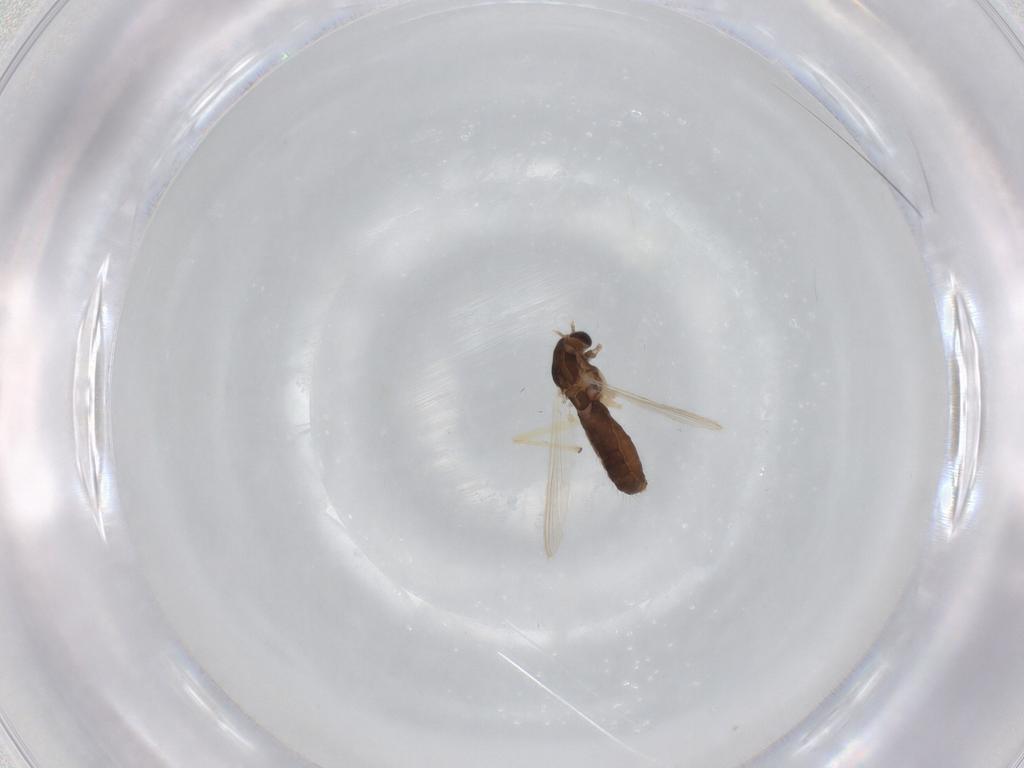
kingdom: Animalia
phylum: Arthropoda
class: Insecta
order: Diptera
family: Chironomidae
